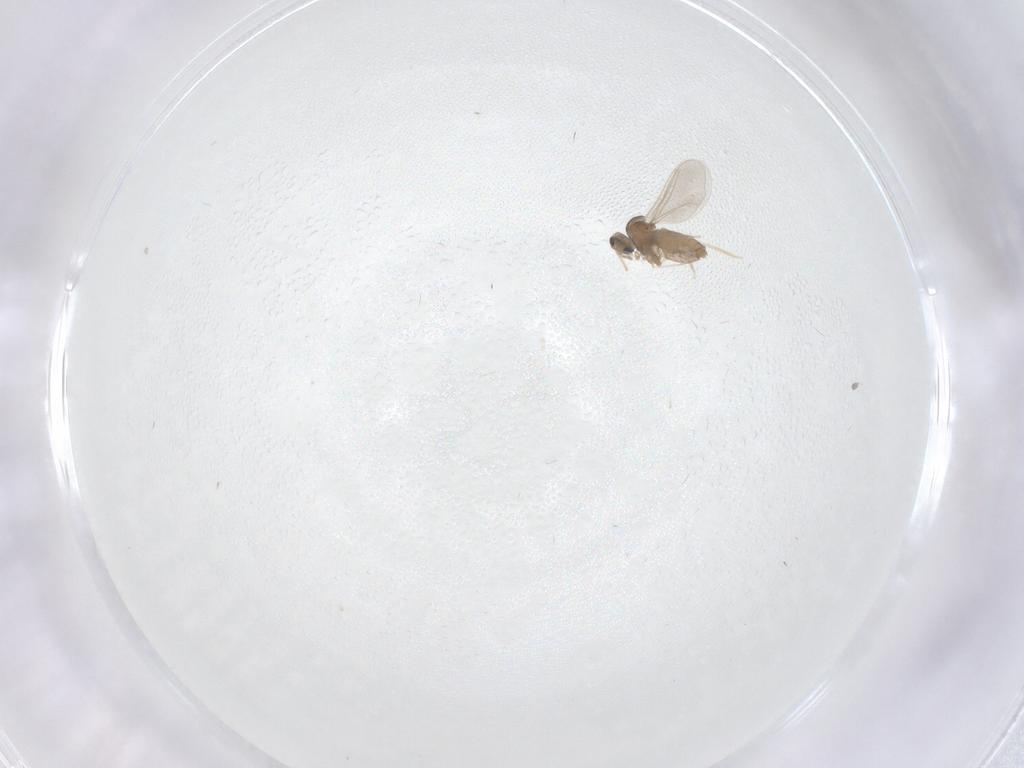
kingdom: Animalia
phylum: Arthropoda
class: Insecta
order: Diptera
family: Cecidomyiidae
